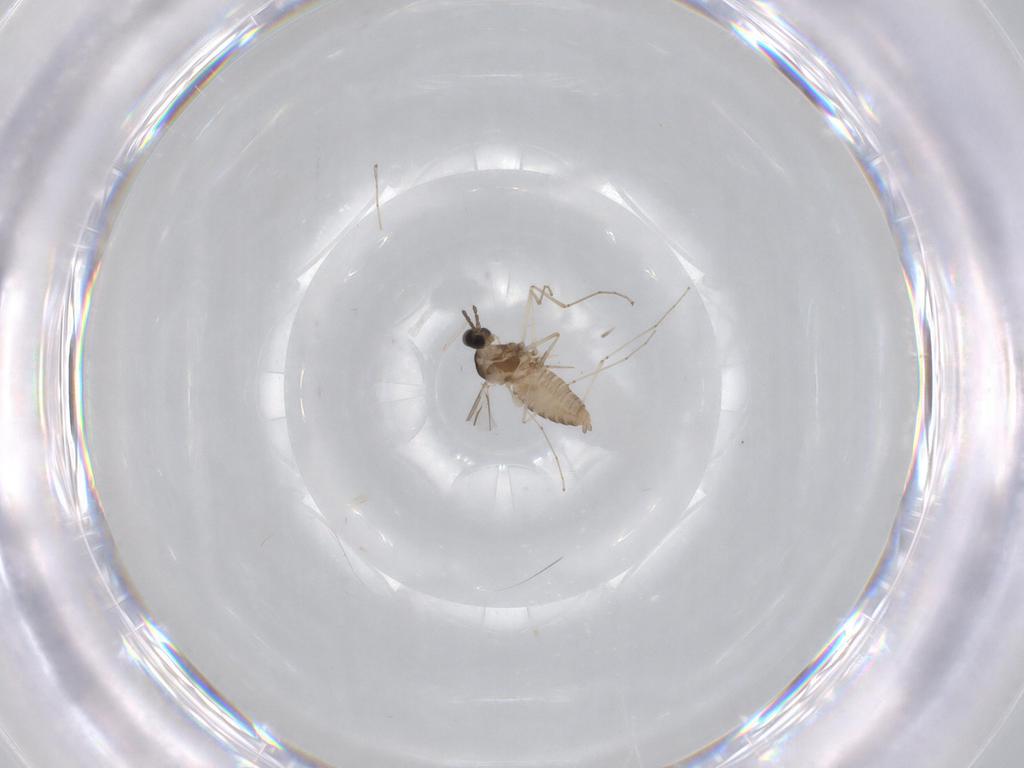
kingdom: Animalia
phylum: Arthropoda
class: Insecta
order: Diptera
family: Cecidomyiidae
